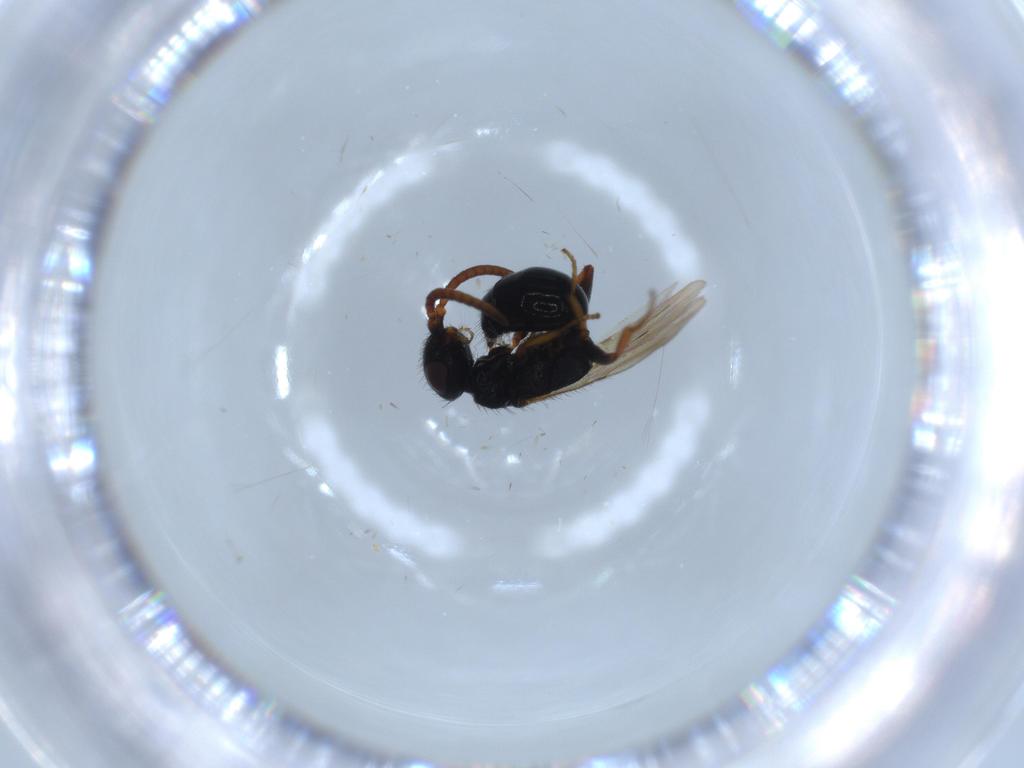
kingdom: Animalia
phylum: Arthropoda
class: Insecta
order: Hymenoptera
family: Bethylidae
